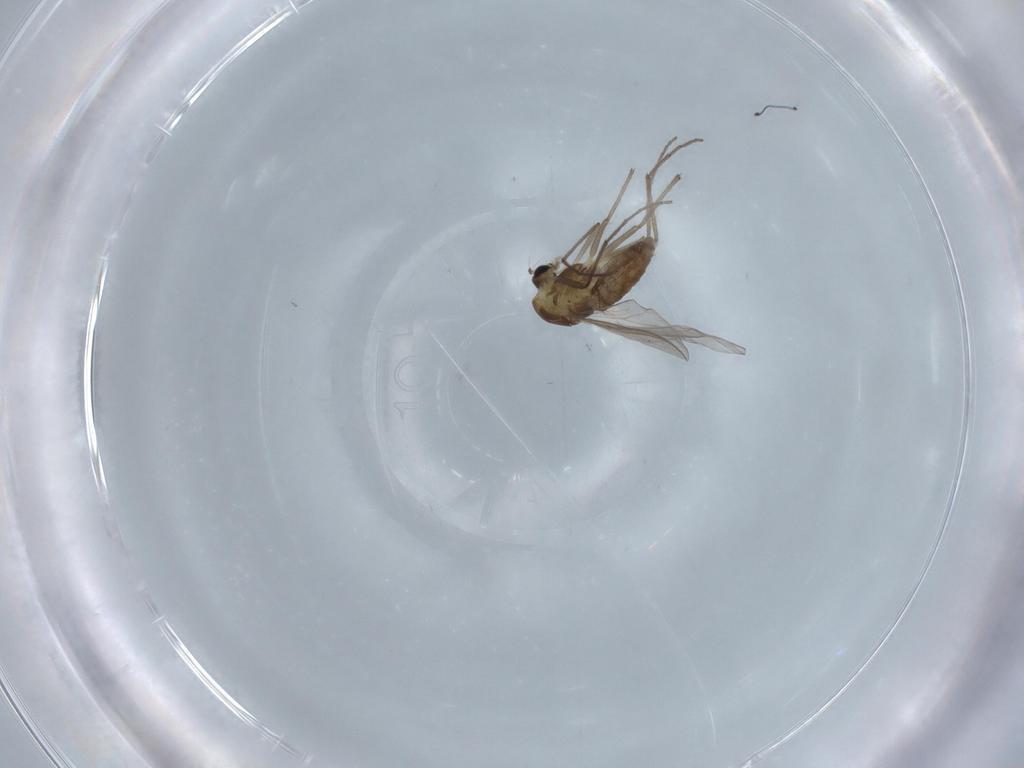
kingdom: Animalia
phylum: Arthropoda
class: Insecta
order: Diptera
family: Chironomidae
